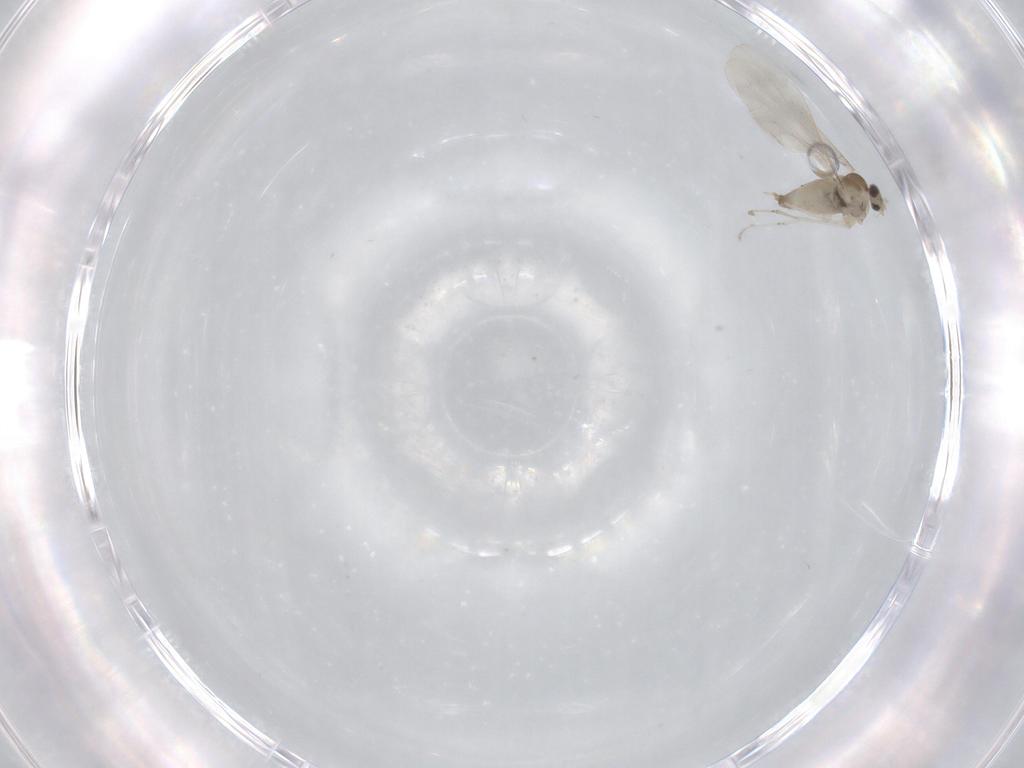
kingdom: Animalia
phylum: Arthropoda
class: Insecta
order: Diptera
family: Cecidomyiidae
